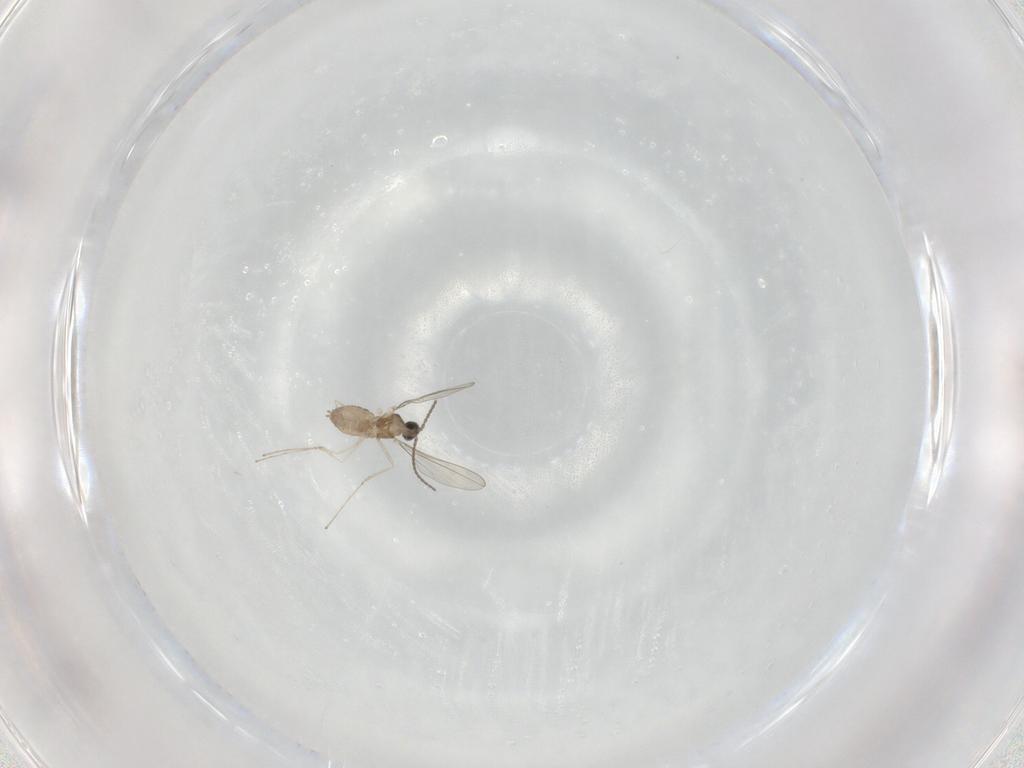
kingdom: Animalia
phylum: Arthropoda
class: Insecta
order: Diptera
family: Cecidomyiidae
